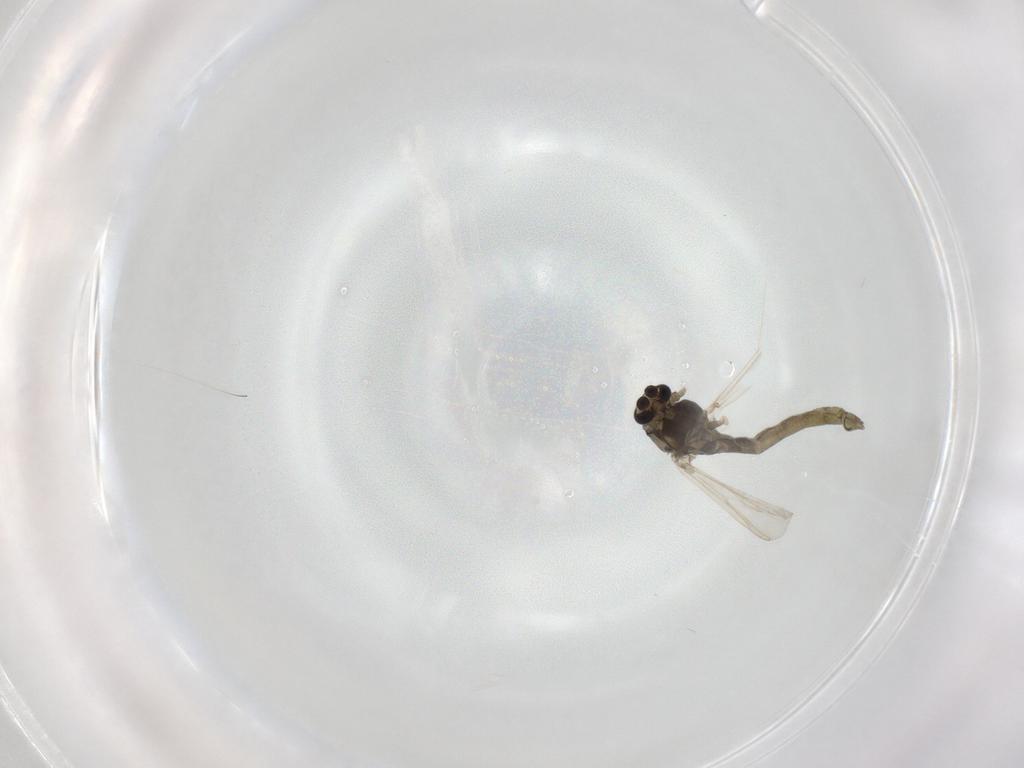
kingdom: Animalia
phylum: Arthropoda
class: Insecta
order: Diptera
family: Chironomidae
